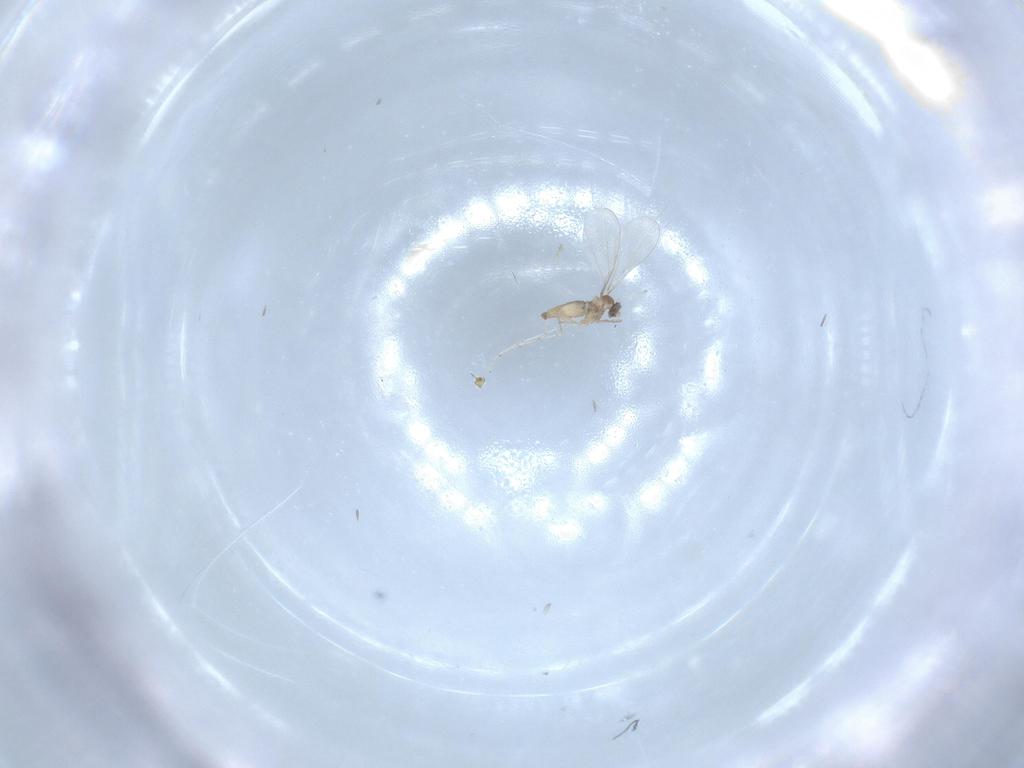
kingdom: Animalia
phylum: Arthropoda
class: Insecta
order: Diptera
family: Cecidomyiidae
